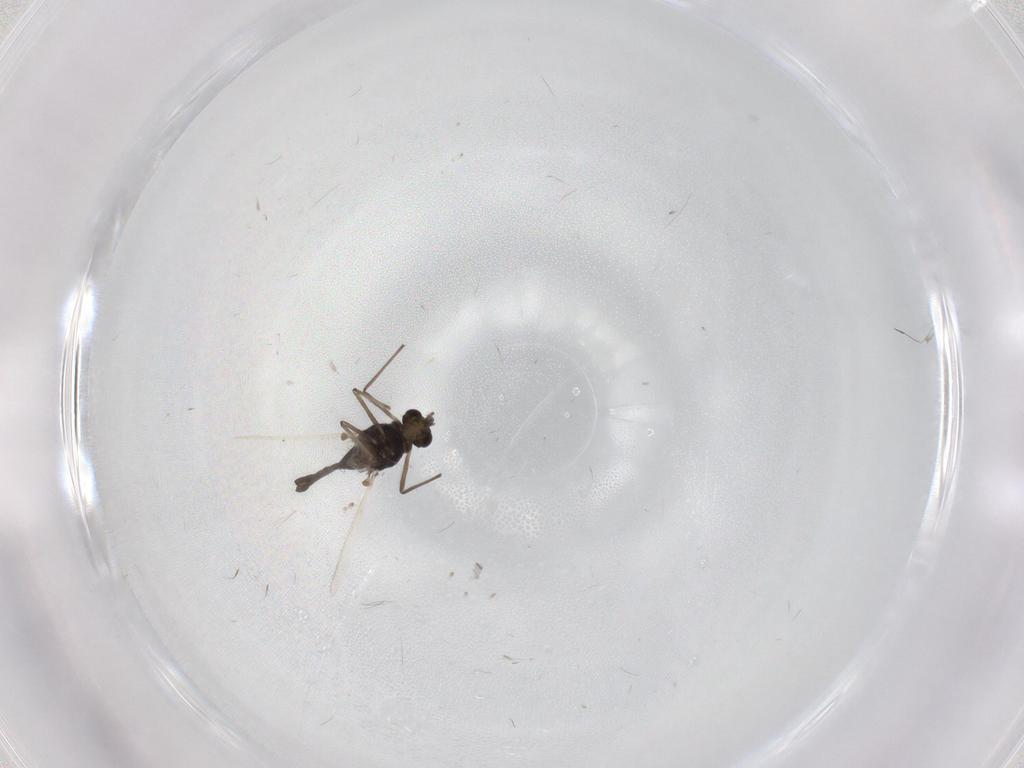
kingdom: Animalia
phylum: Arthropoda
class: Insecta
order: Diptera
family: Chironomidae
